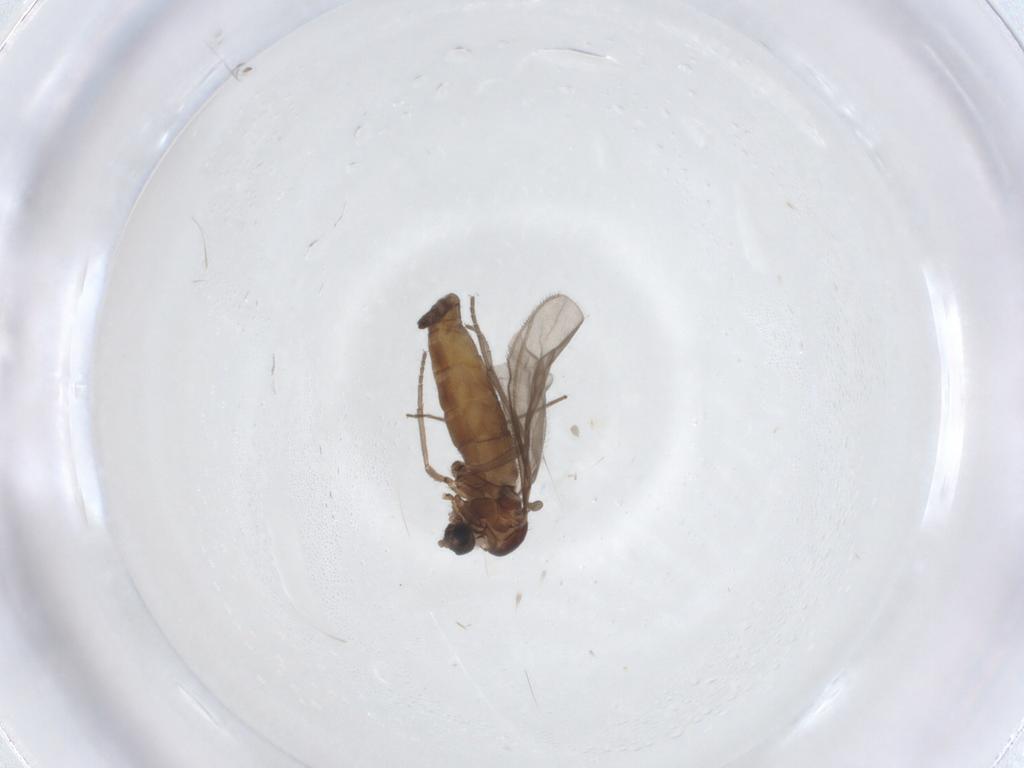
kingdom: Animalia
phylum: Arthropoda
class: Insecta
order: Diptera
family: Sciaridae
